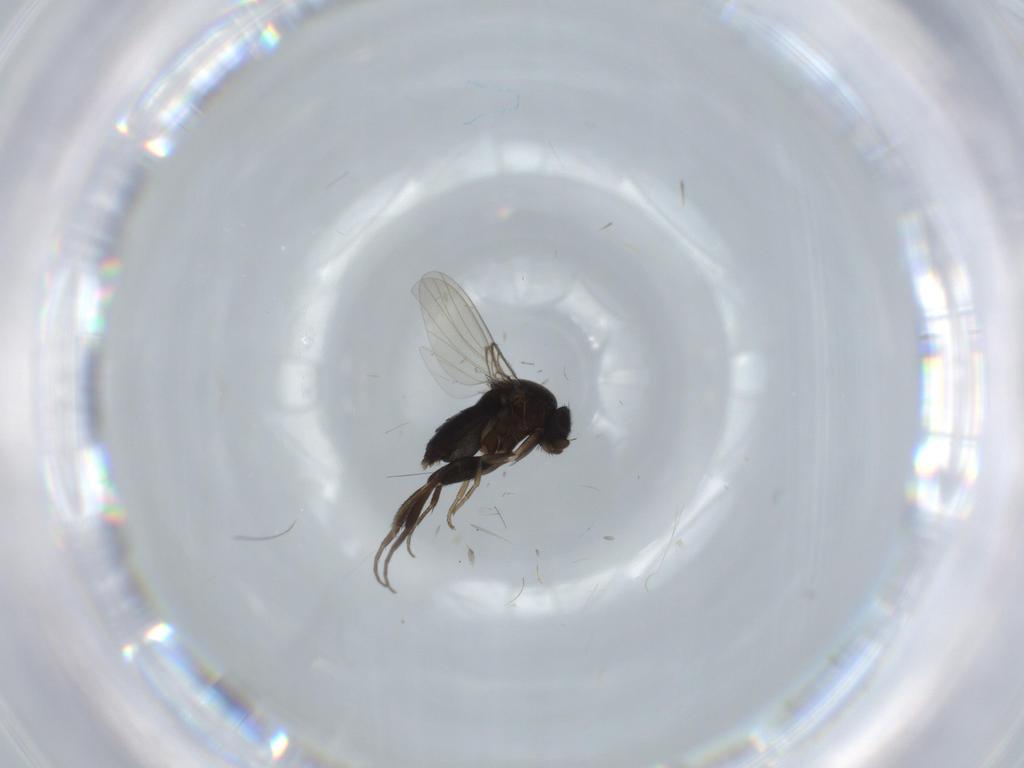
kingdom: Animalia
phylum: Arthropoda
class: Insecta
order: Diptera
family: Phoridae
